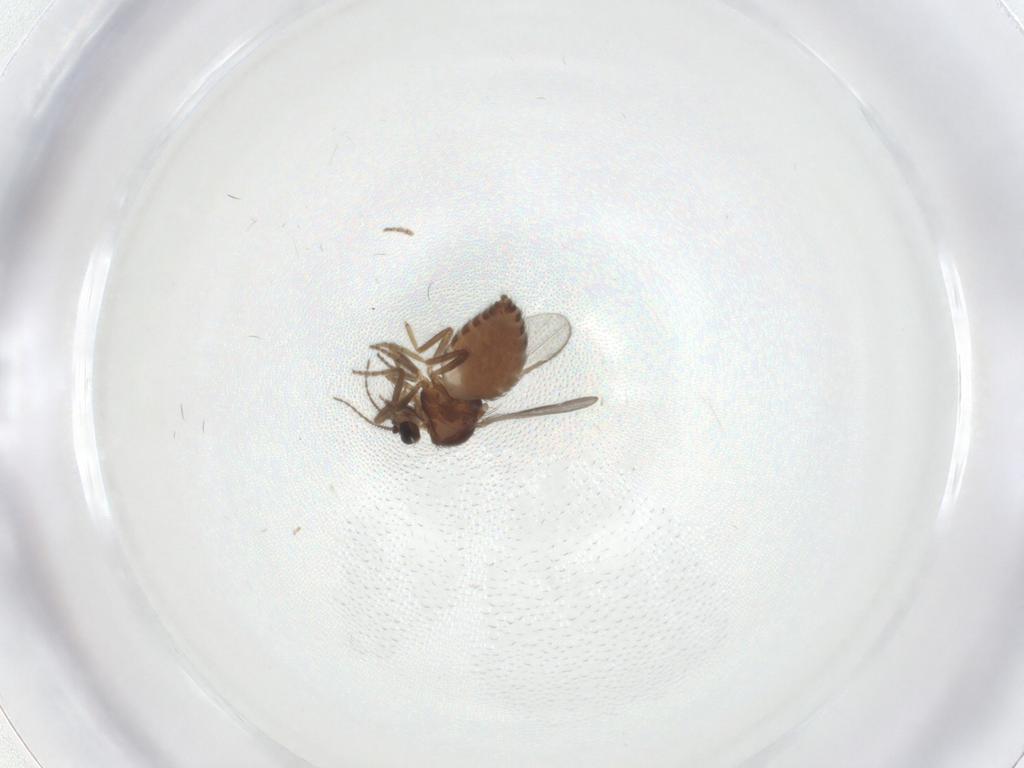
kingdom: Animalia
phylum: Arthropoda
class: Insecta
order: Diptera
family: Ceratopogonidae
